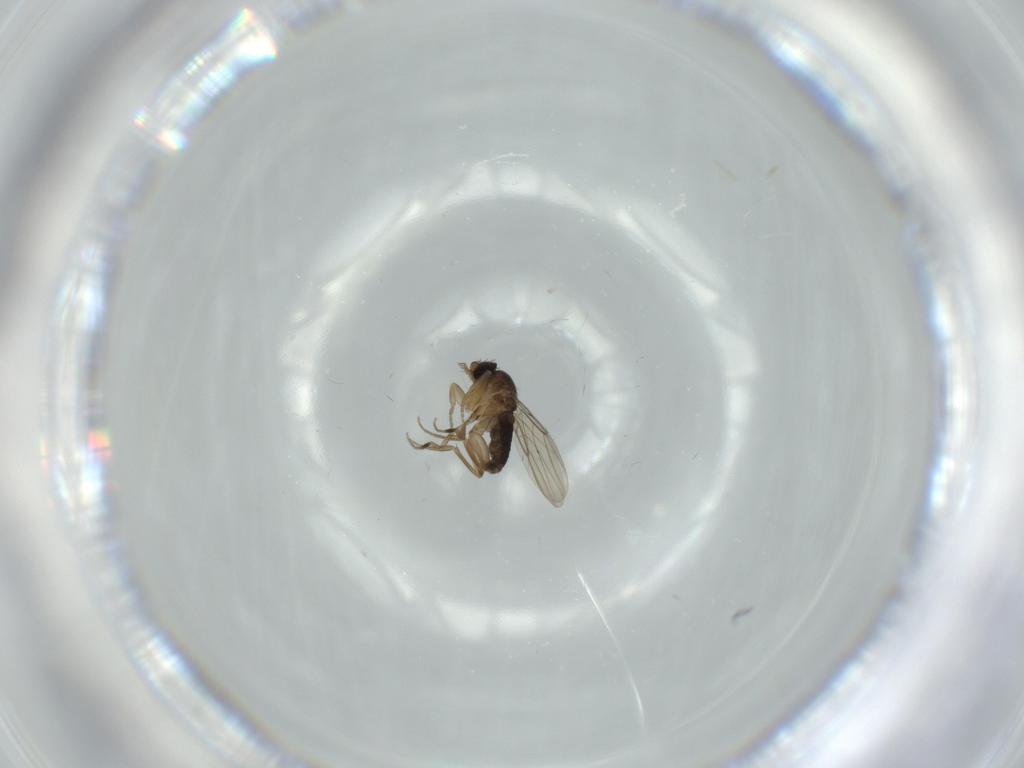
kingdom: Animalia
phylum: Arthropoda
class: Insecta
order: Diptera
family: Phoridae
